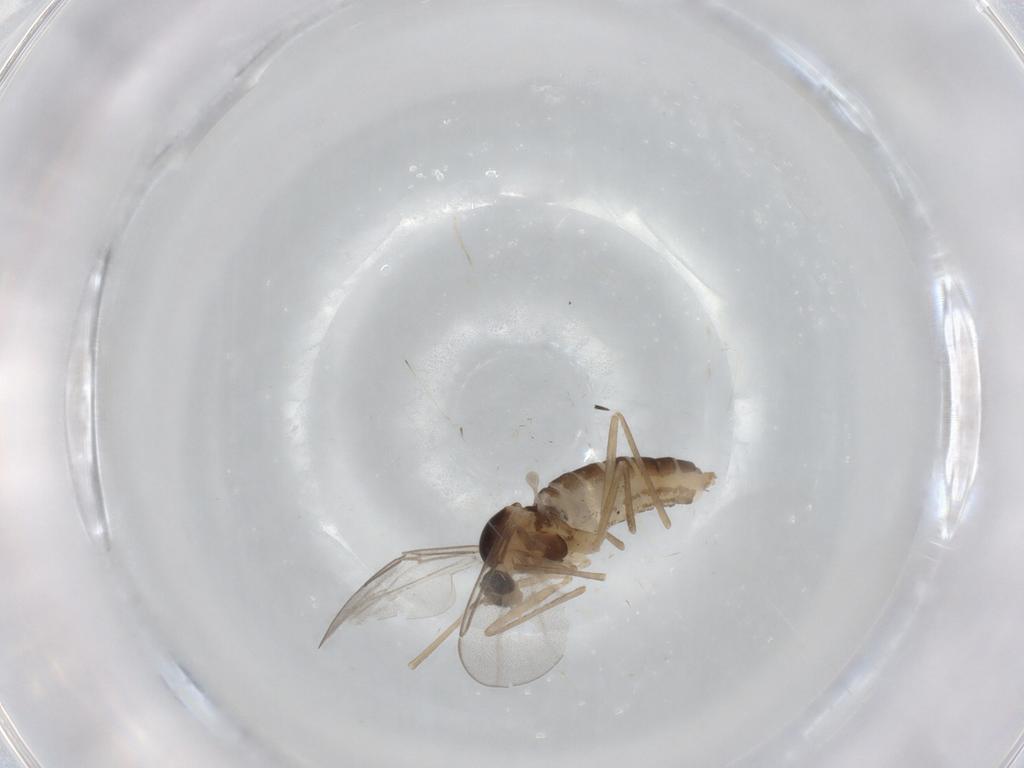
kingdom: Animalia
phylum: Arthropoda
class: Insecta
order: Diptera
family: Cecidomyiidae
